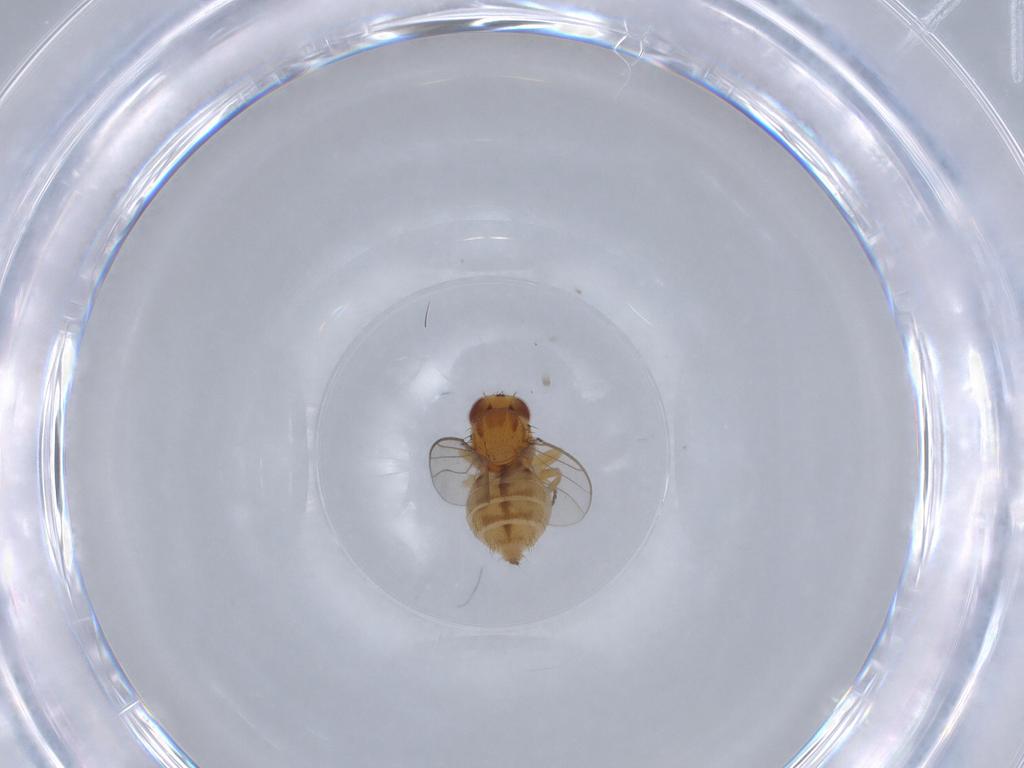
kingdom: Animalia
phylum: Arthropoda
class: Insecta
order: Diptera
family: Chloropidae
